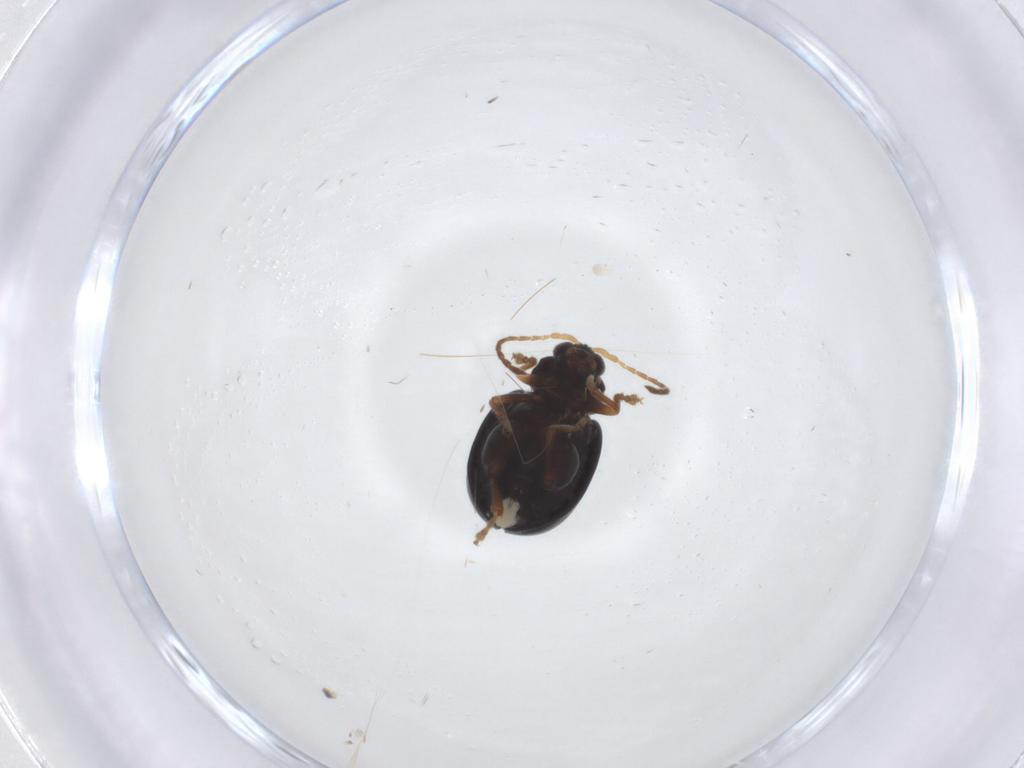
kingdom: Animalia
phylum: Arthropoda
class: Insecta
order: Coleoptera
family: Chrysomelidae
